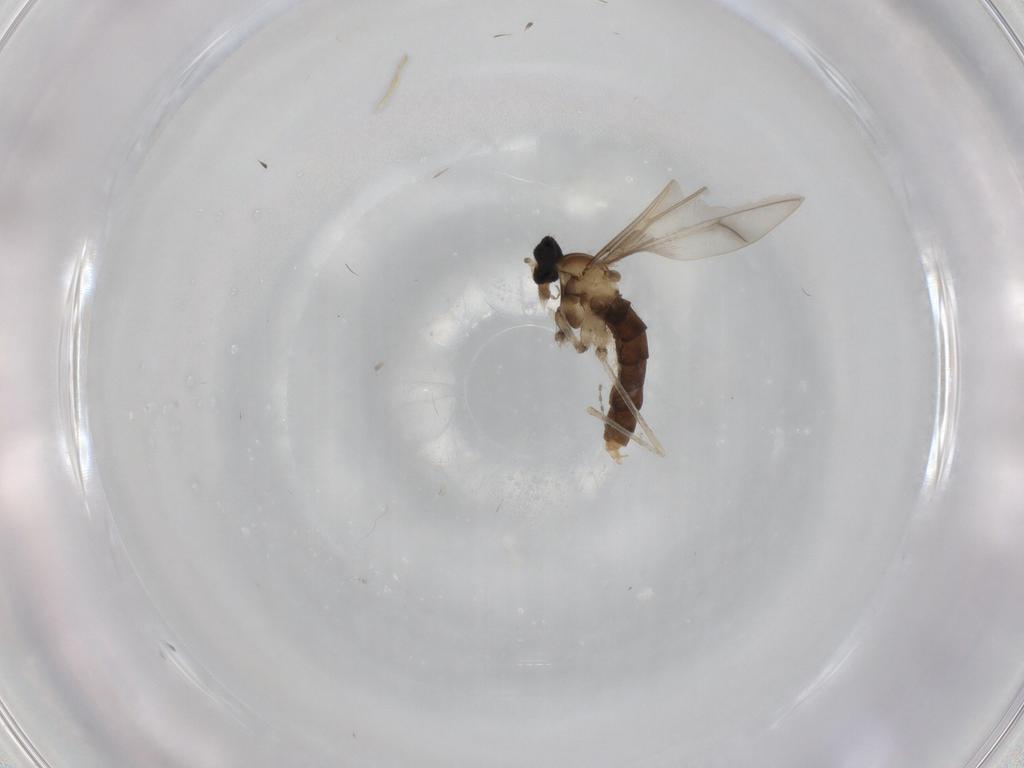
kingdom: Animalia
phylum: Arthropoda
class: Insecta
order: Diptera
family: Cecidomyiidae
